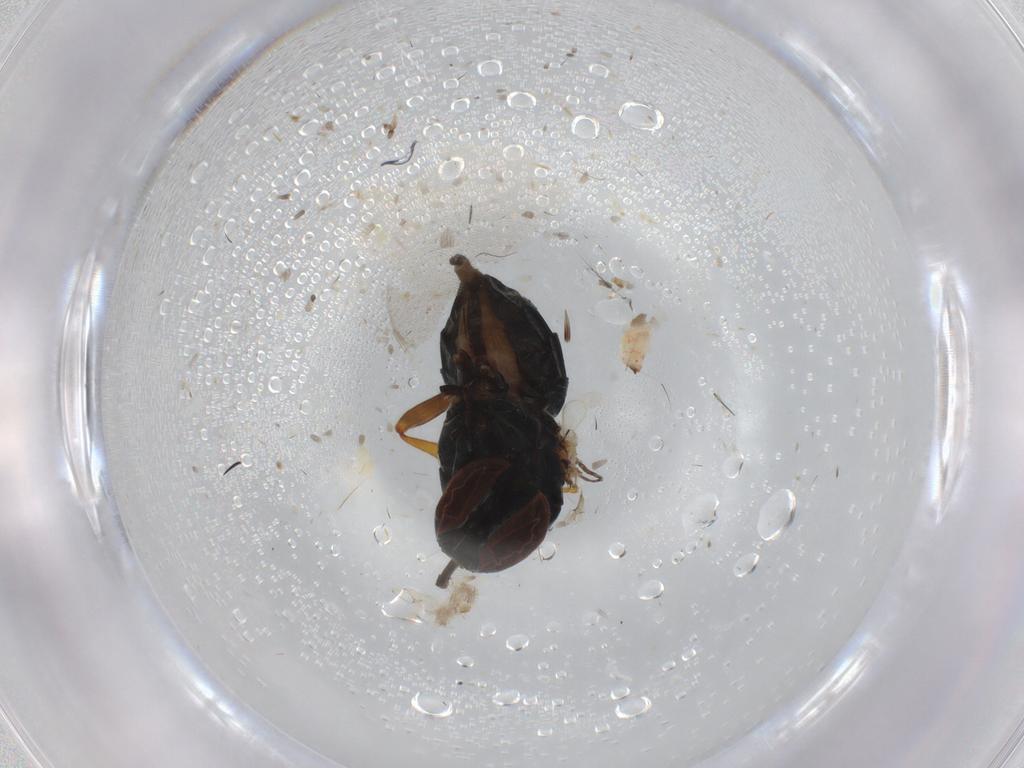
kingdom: Animalia
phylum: Arthropoda
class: Insecta
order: Diptera
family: Muscidae
